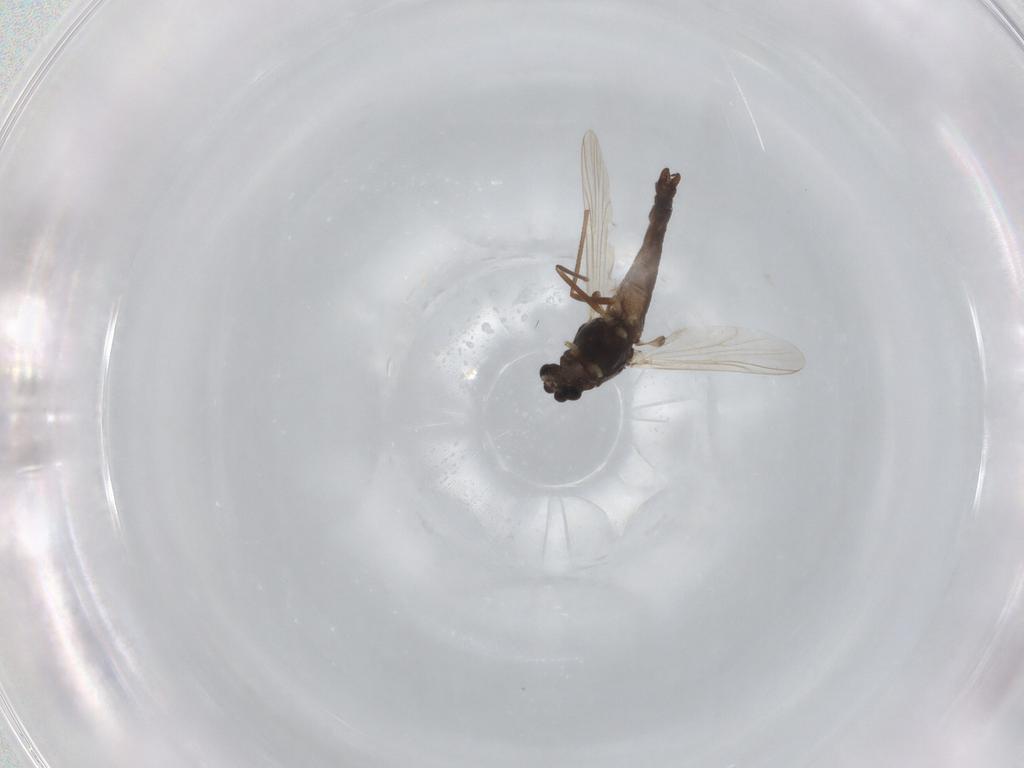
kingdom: Animalia
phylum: Arthropoda
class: Insecta
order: Diptera
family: Chironomidae
